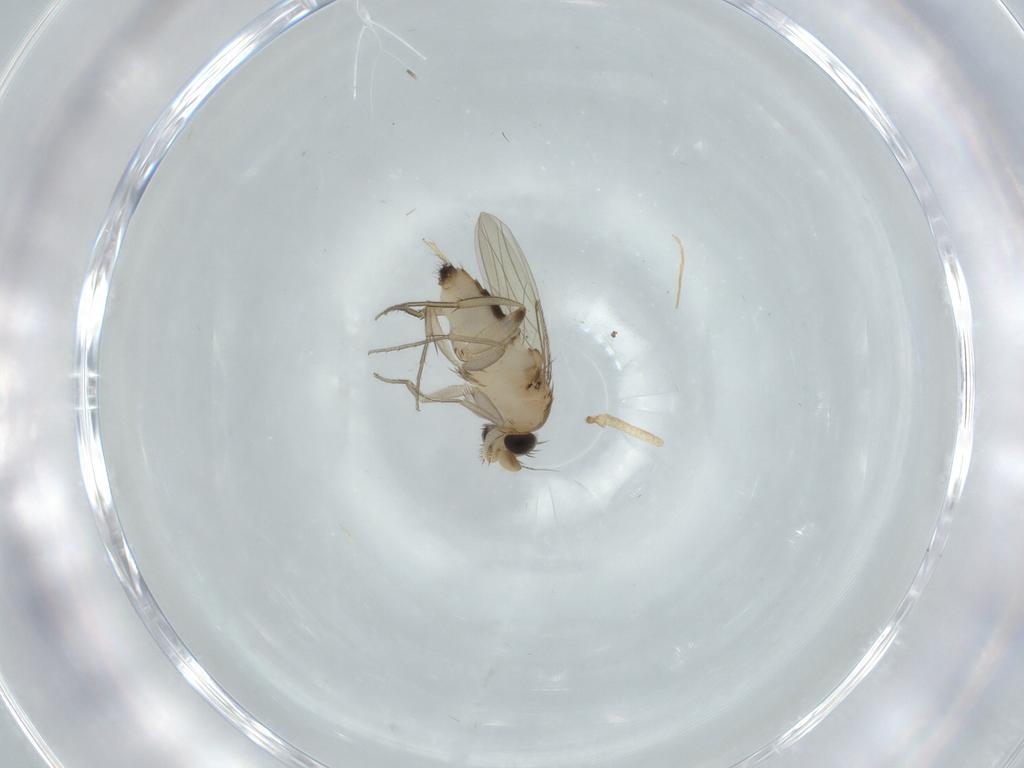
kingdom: Animalia
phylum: Arthropoda
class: Insecta
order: Diptera
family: Phoridae
